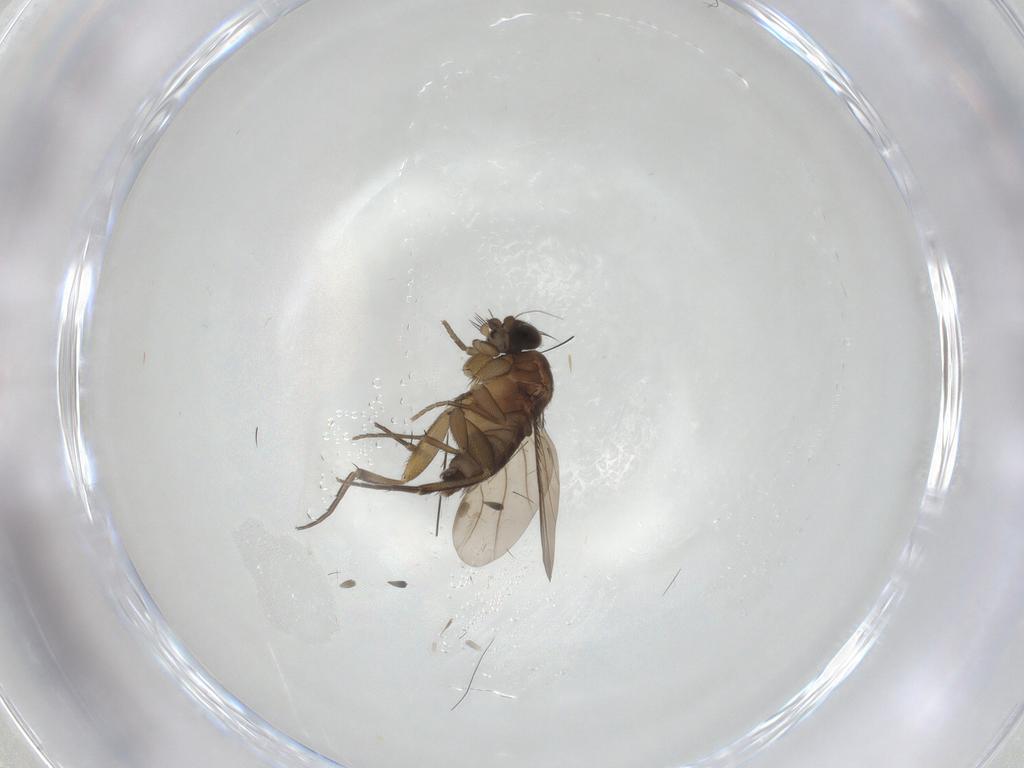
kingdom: Animalia
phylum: Arthropoda
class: Insecta
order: Diptera
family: Phoridae
